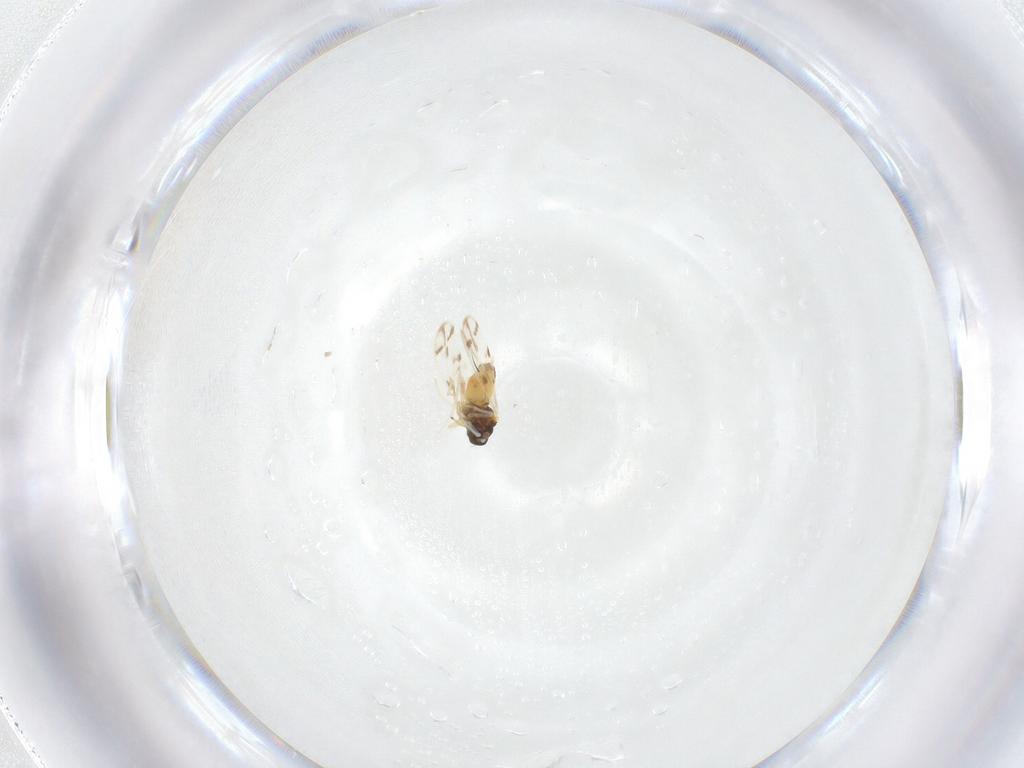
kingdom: Animalia
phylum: Arthropoda
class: Insecta
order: Hemiptera
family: Aleyrodidae
